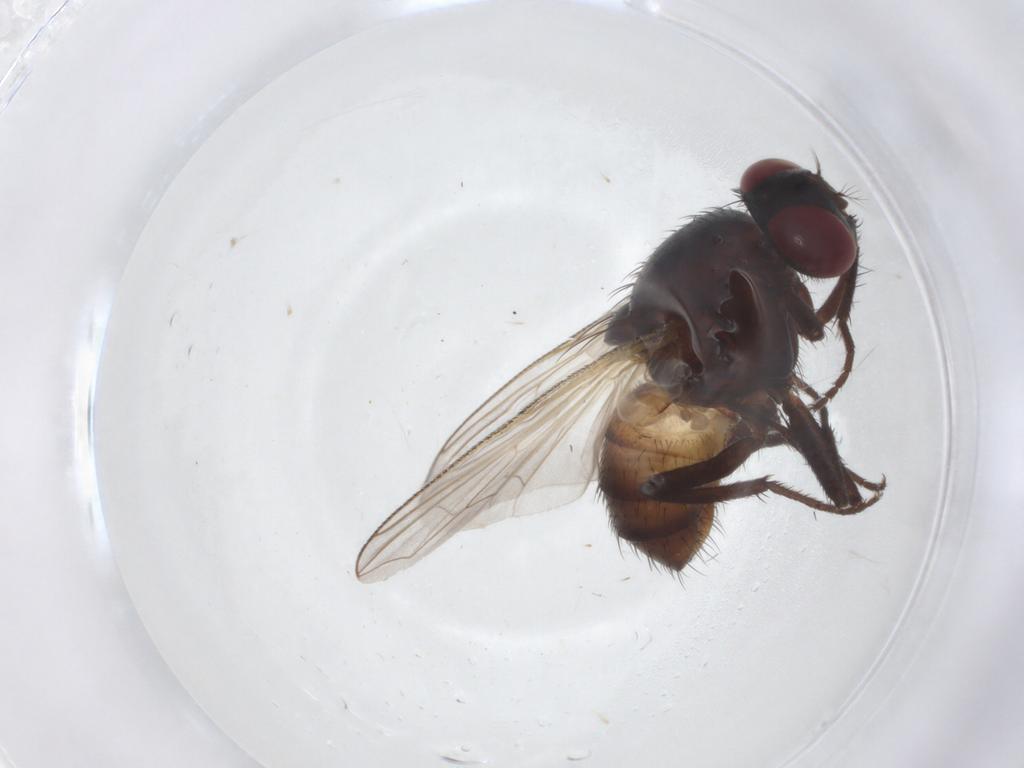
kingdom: Animalia
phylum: Arthropoda
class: Insecta
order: Diptera
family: Muscidae
